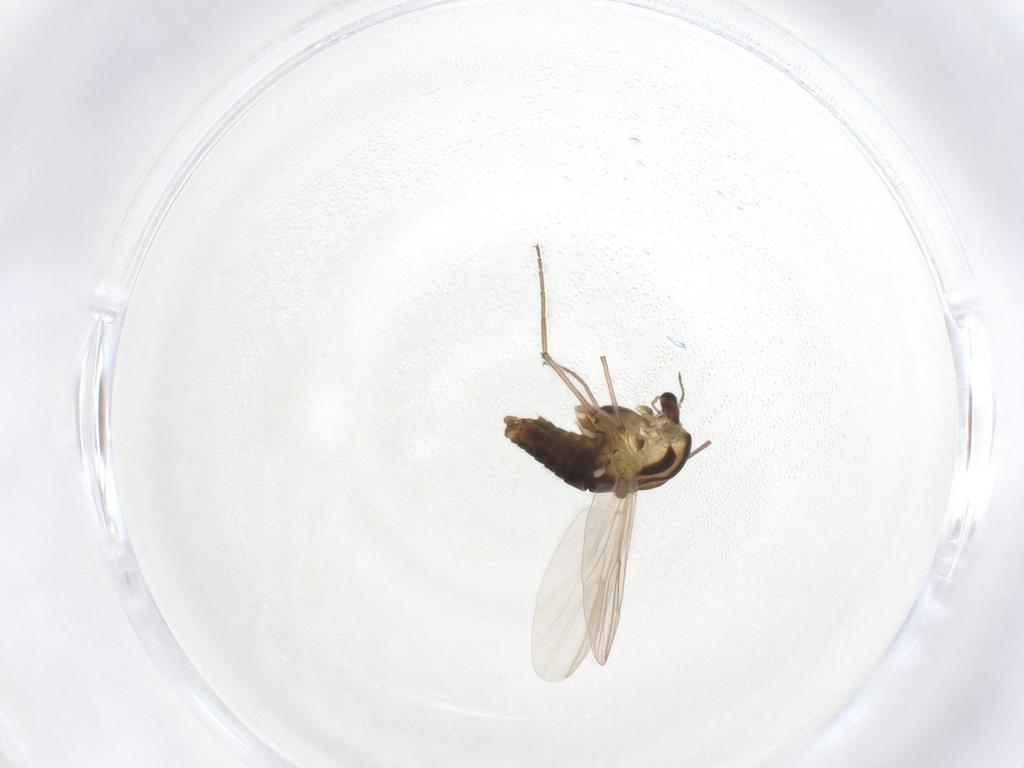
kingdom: Animalia
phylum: Arthropoda
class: Insecta
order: Diptera
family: Chironomidae
